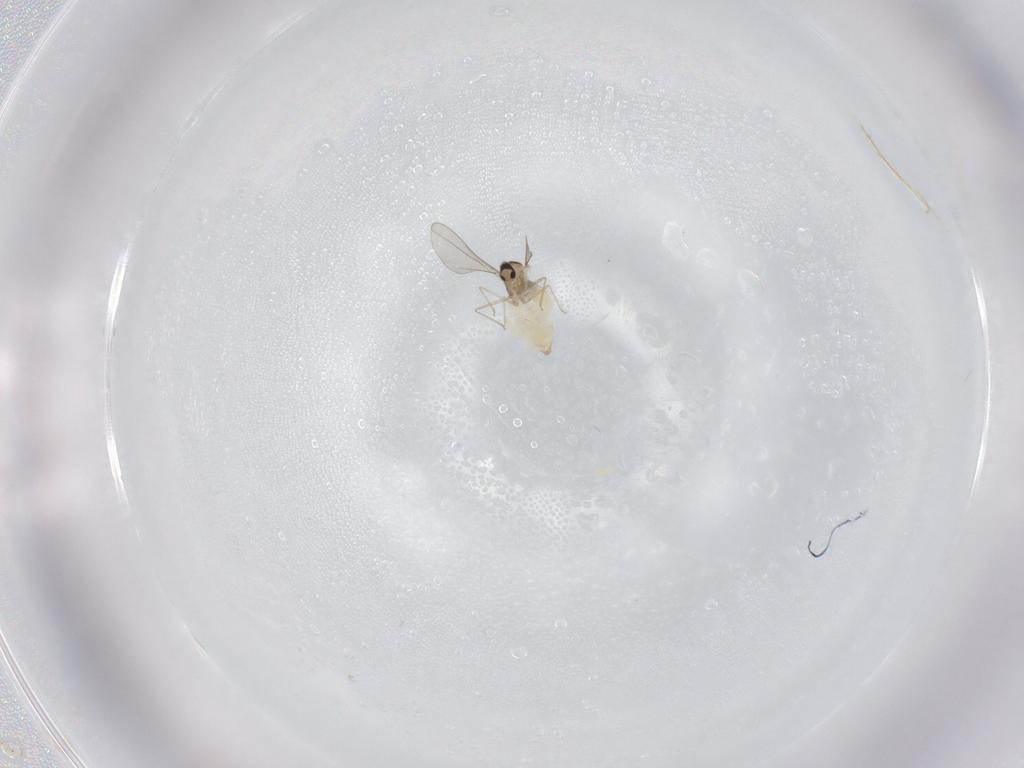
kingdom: Animalia
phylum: Arthropoda
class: Insecta
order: Diptera
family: Cecidomyiidae
